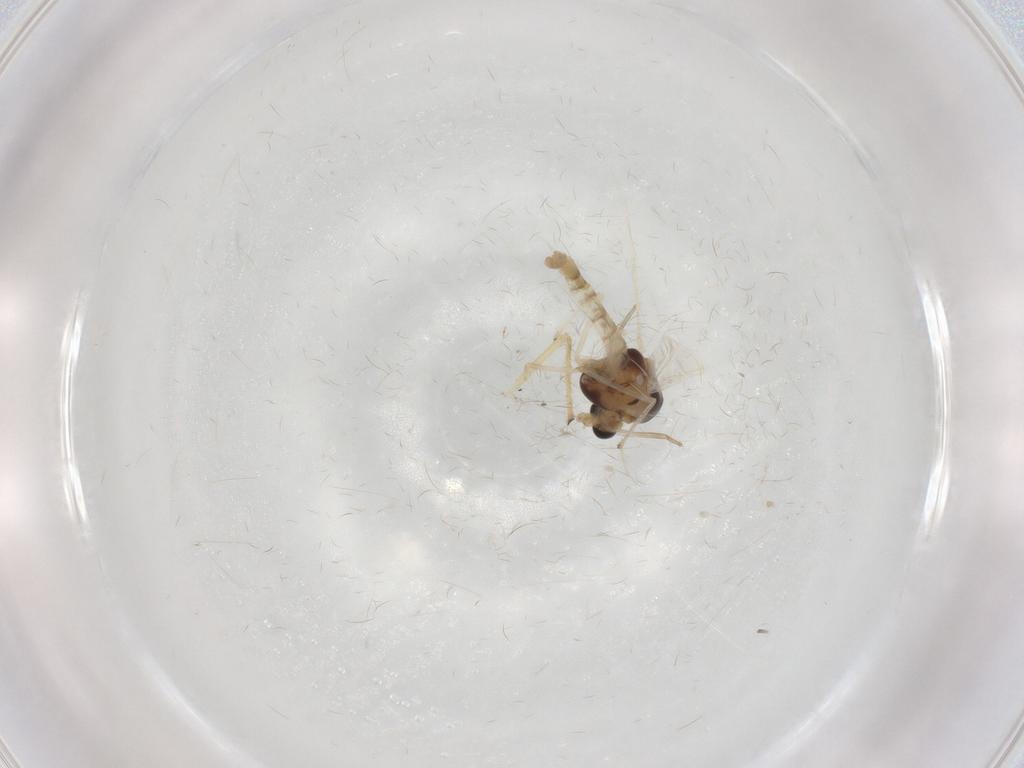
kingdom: Animalia
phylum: Arthropoda
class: Insecta
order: Diptera
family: Chironomidae
